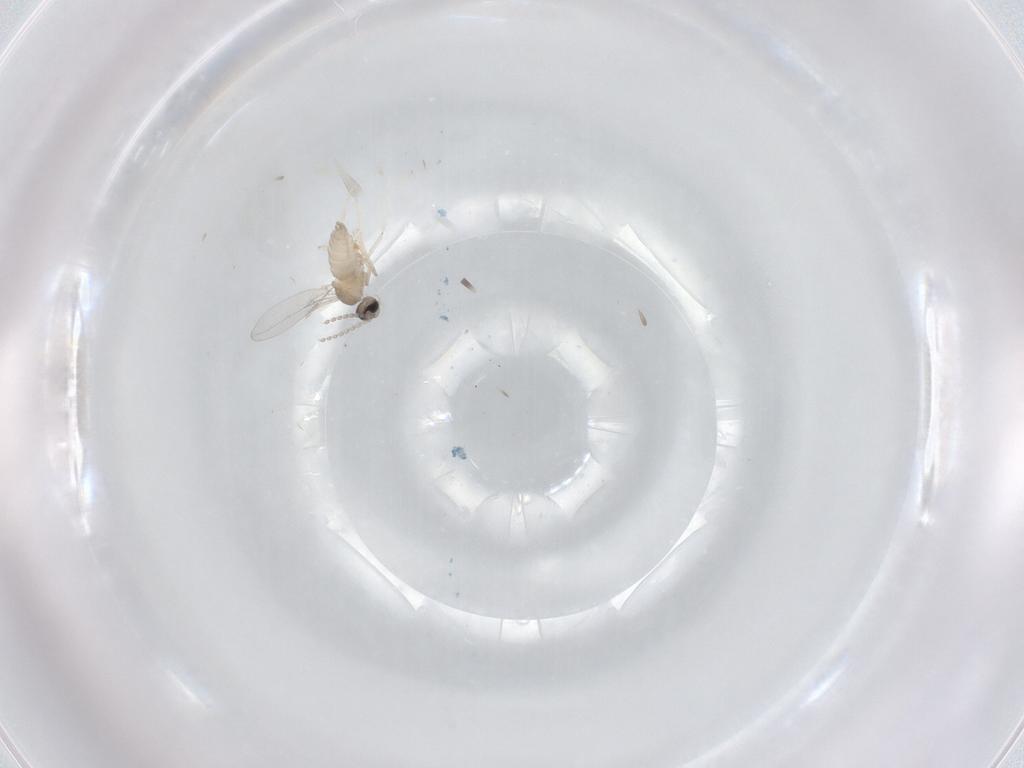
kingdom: Animalia
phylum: Arthropoda
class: Insecta
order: Diptera
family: Cecidomyiidae
